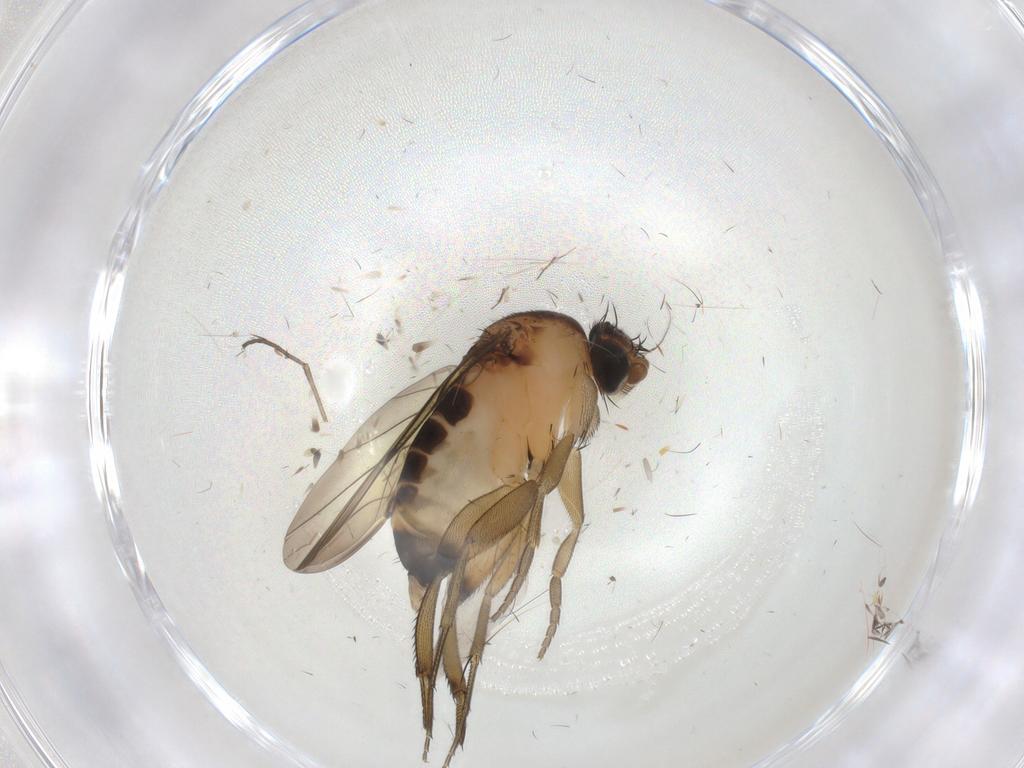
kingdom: Animalia
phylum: Arthropoda
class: Insecta
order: Diptera
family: Phoridae
